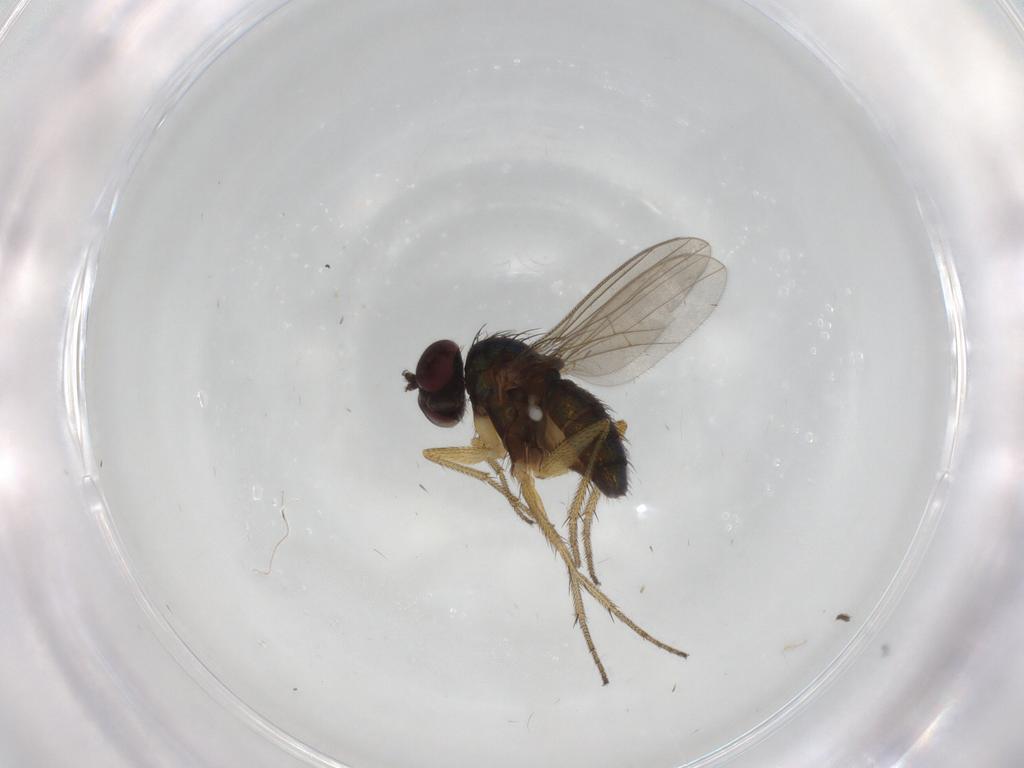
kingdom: Animalia
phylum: Arthropoda
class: Insecta
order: Diptera
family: Dolichopodidae
